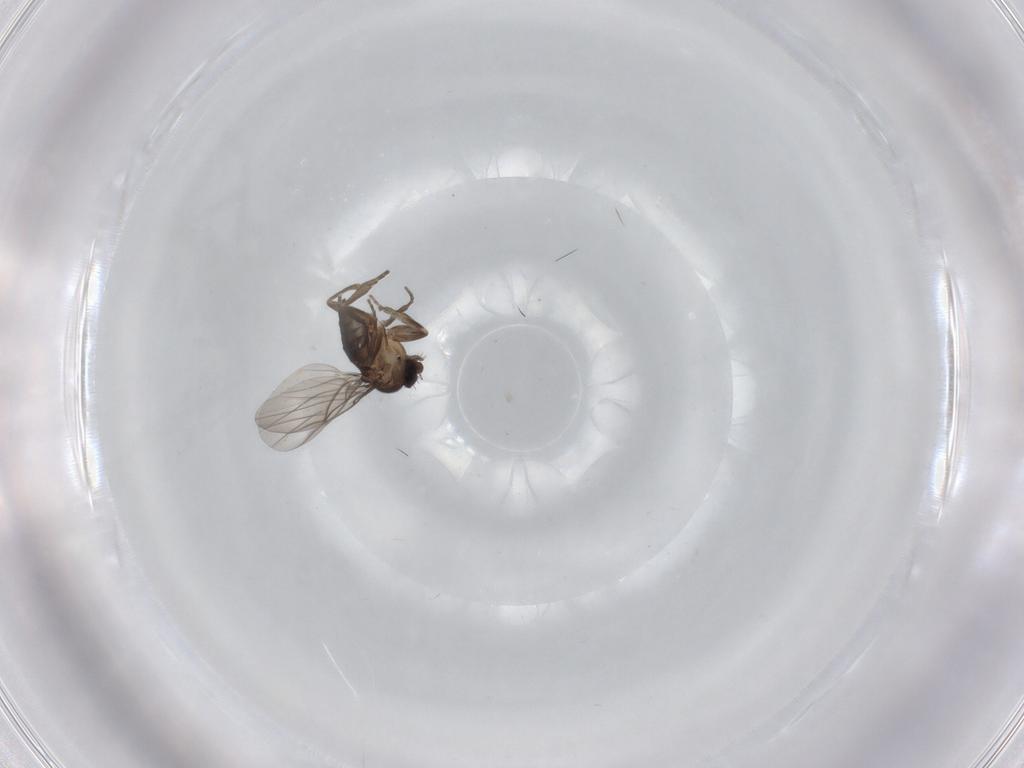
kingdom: Animalia
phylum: Arthropoda
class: Insecta
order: Diptera
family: Phoridae
